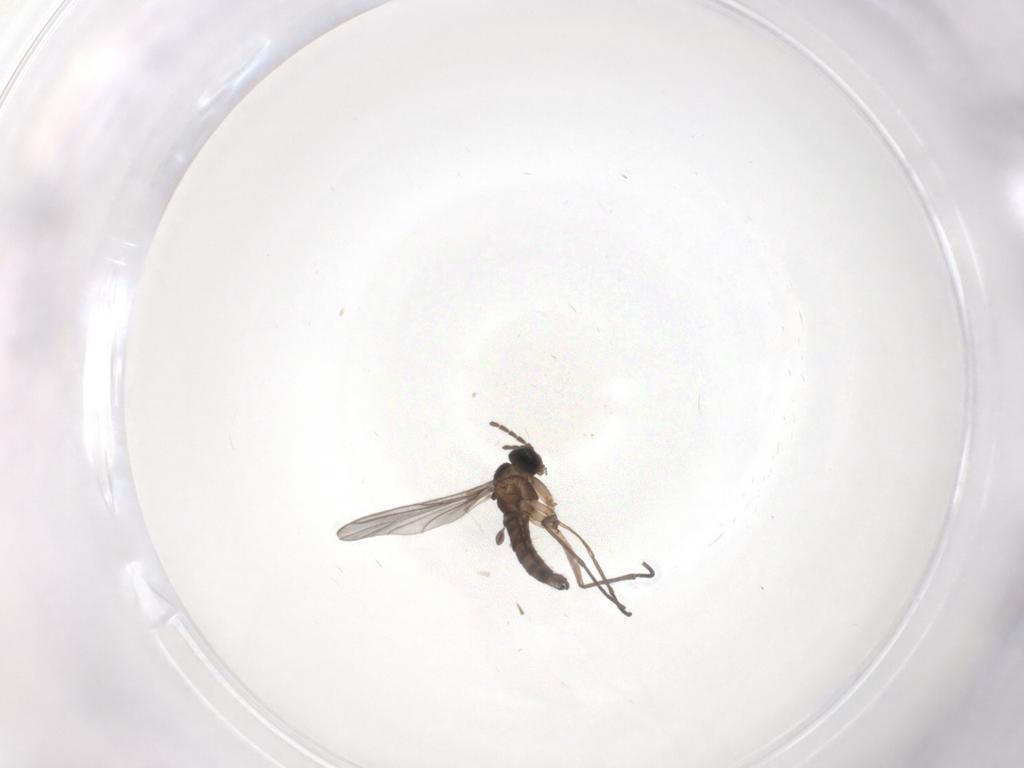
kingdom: Animalia
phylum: Arthropoda
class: Insecta
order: Diptera
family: Sciaridae
